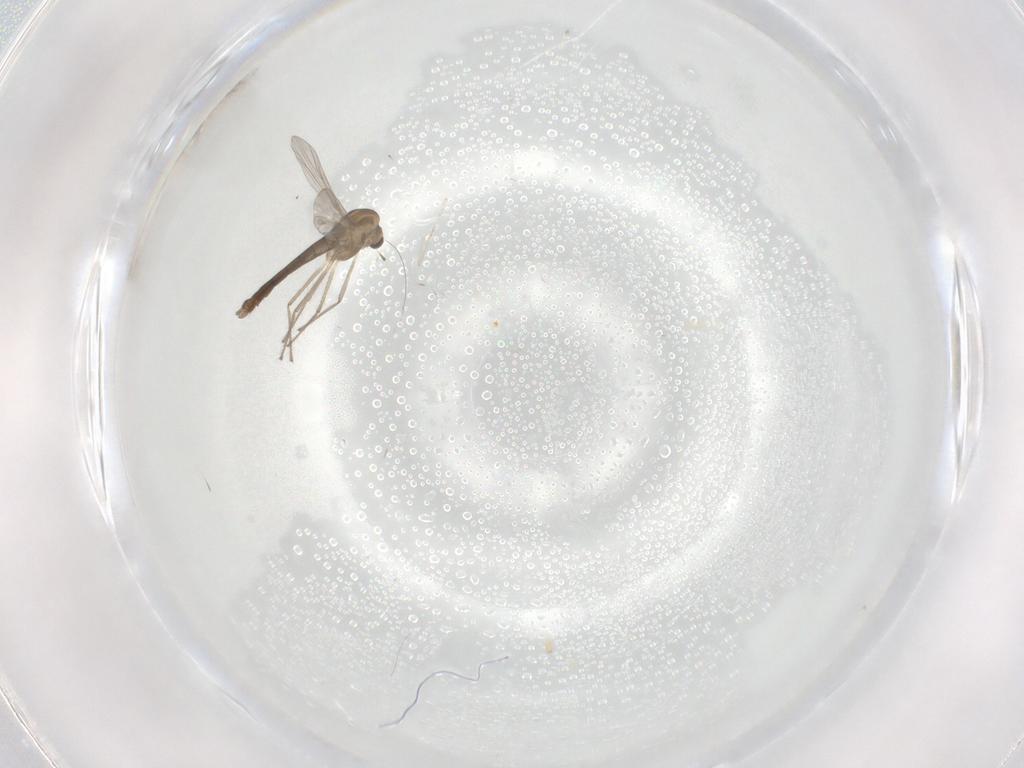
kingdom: Animalia
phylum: Arthropoda
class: Insecta
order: Diptera
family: Chironomidae
